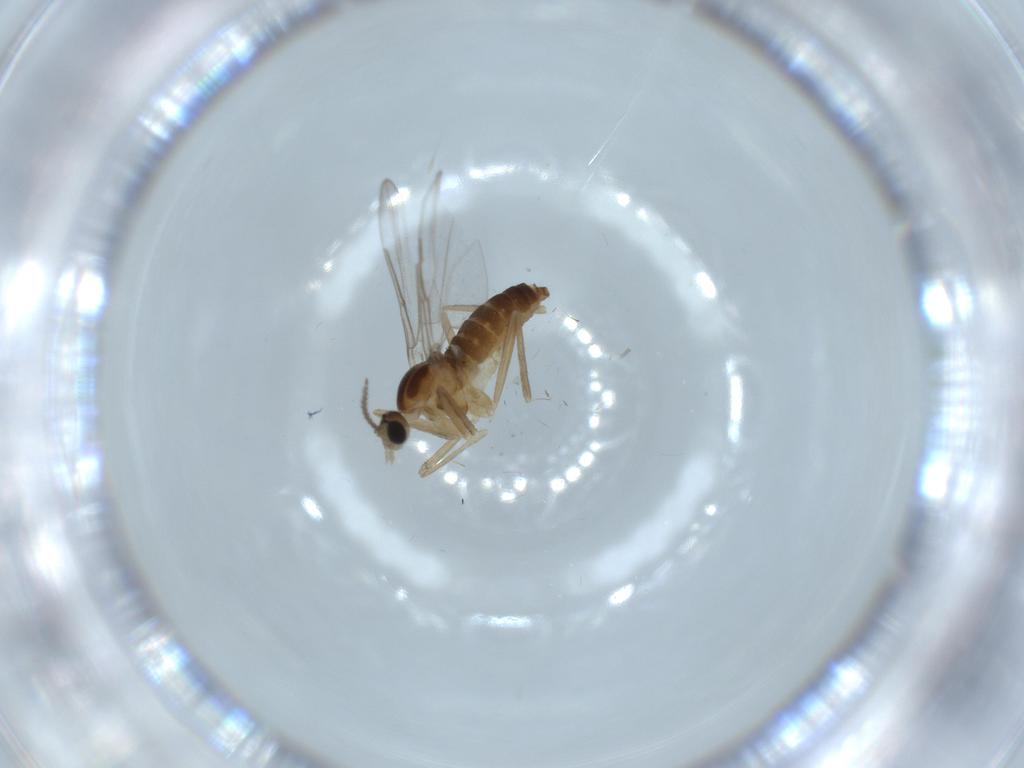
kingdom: Animalia
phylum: Arthropoda
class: Insecta
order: Diptera
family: Cecidomyiidae
